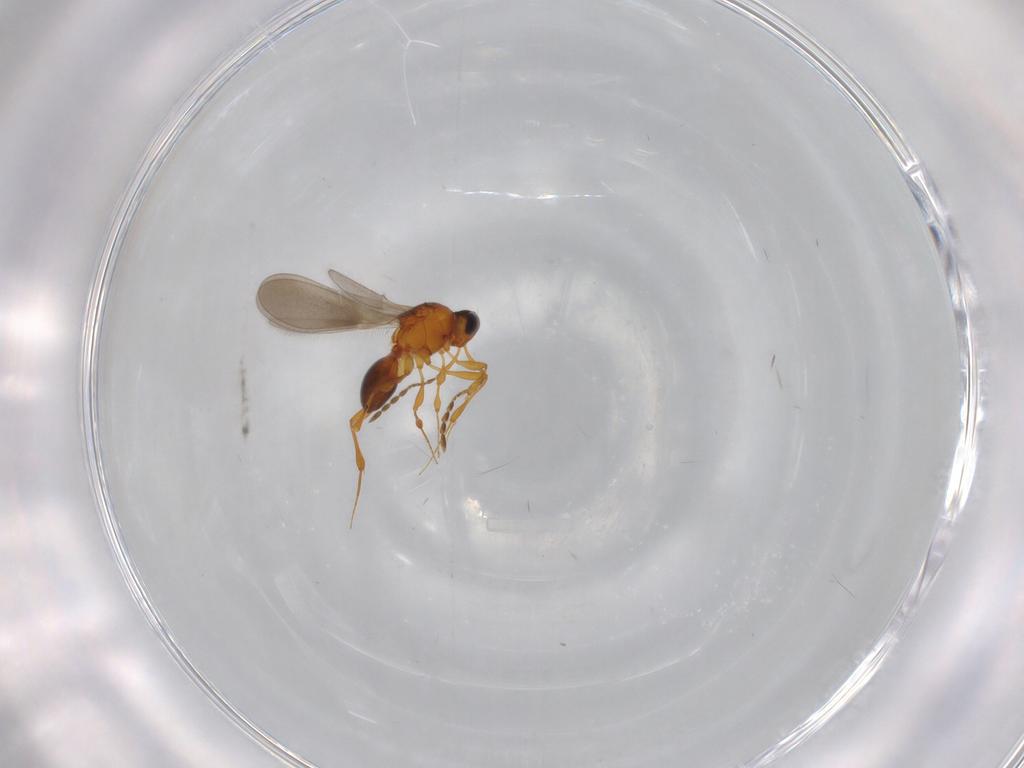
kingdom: Animalia
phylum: Arthropoda
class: Insecta
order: Hymenoptera
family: Platygastridae
